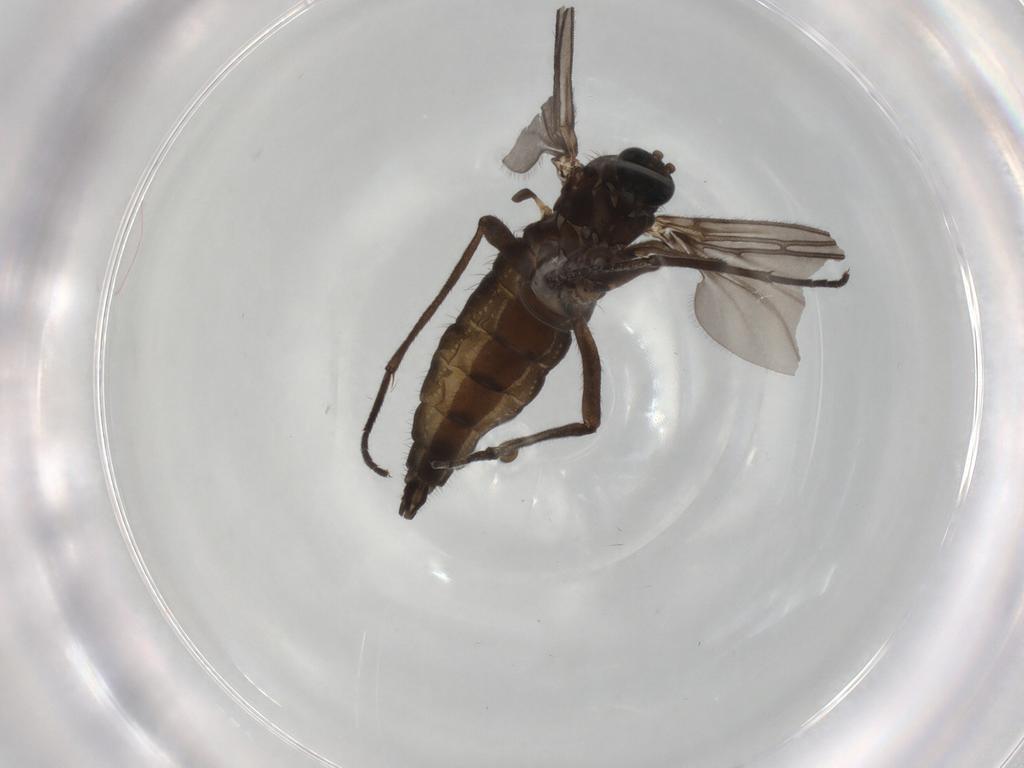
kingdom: Animalia
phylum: Arthropoda
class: Insecta
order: Diptera
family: Sciaridae
